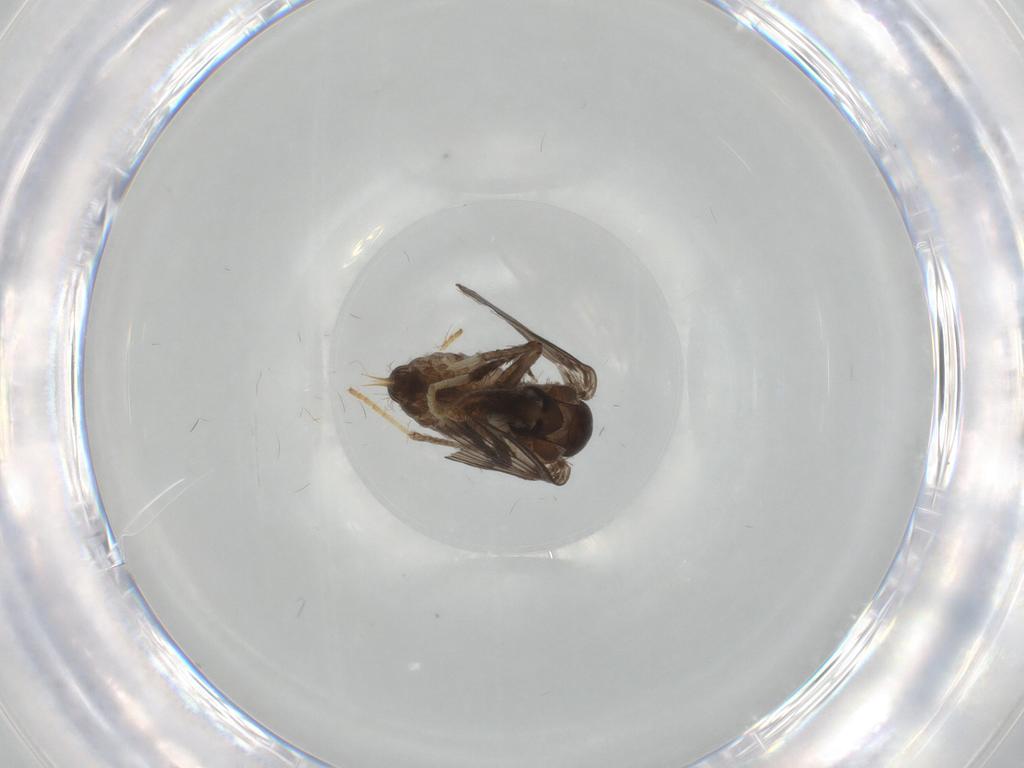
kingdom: Animalia
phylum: Arthropoda
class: Insecta
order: Diptera
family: Psychodidae
